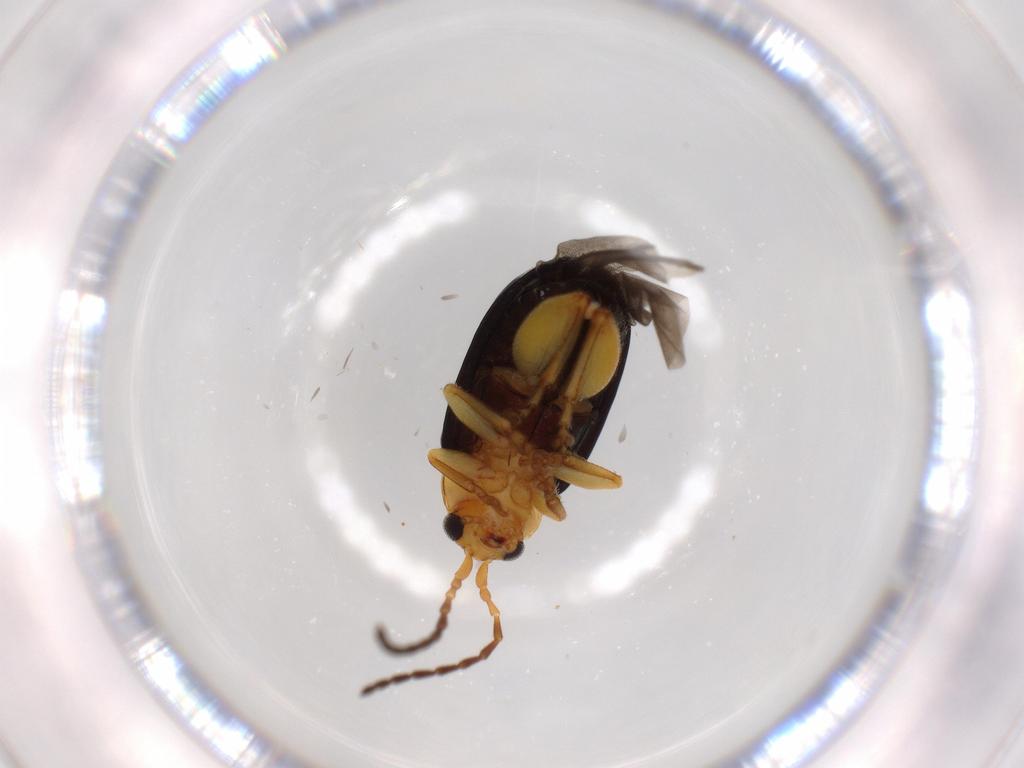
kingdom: Animalia
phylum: Arthropoda
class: Insecta
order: Coleoptera
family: Chrysomelidae
